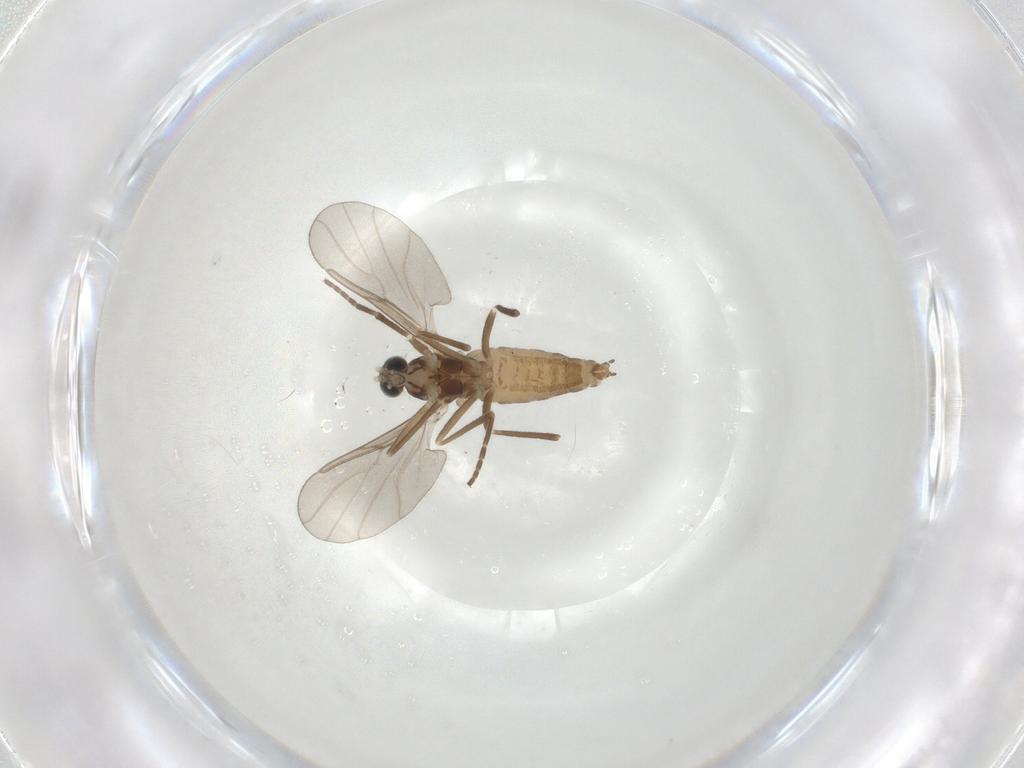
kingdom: Animalia
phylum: Arthropoda
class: Insecta
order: Diptera
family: Cecidomyiidae
